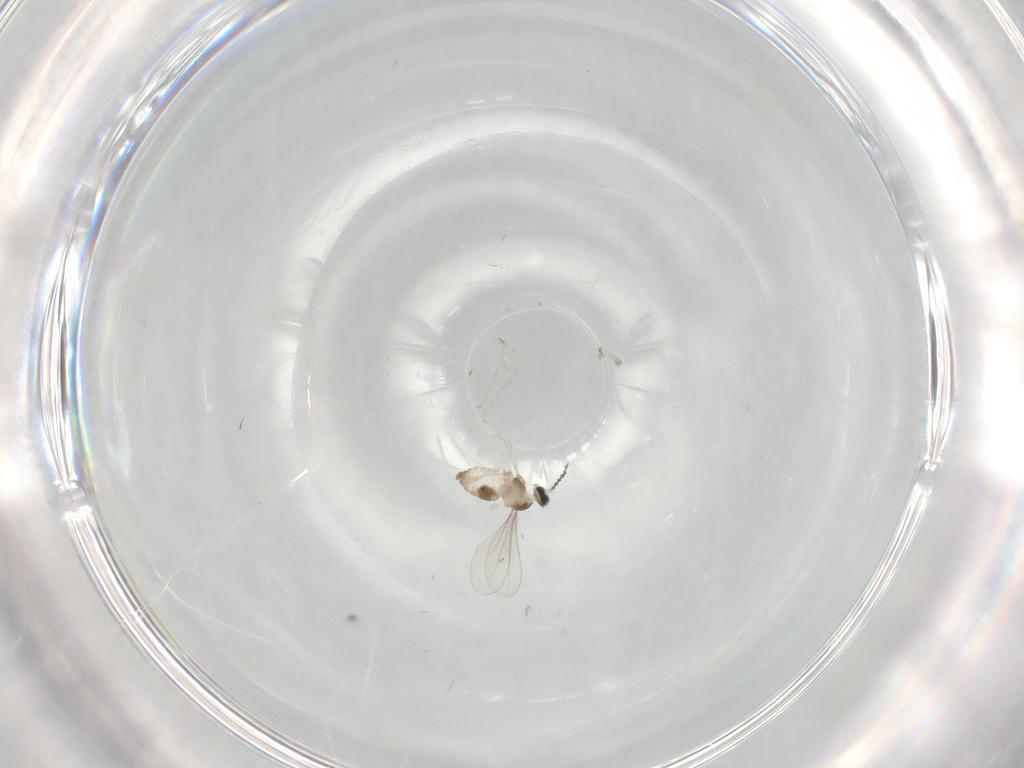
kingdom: Animalia
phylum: Arthropoda
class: Insecta
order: Diptera
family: Cecidomyiidae
